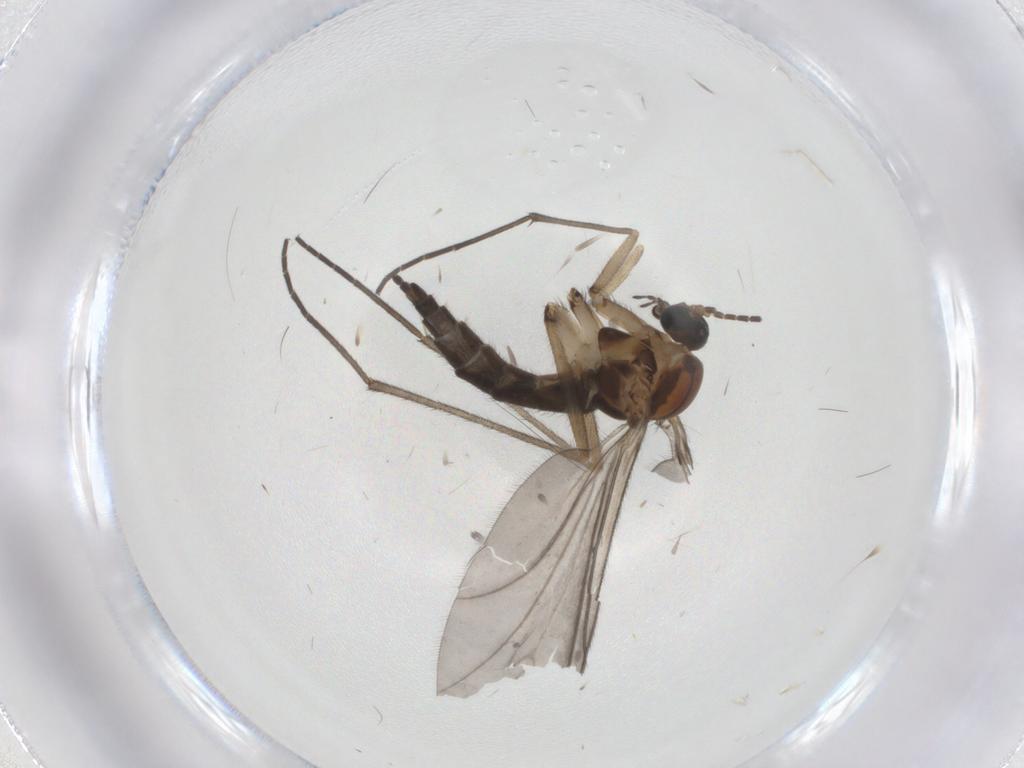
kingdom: Animalia
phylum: Arthropoda
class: Insecta
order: Diptera
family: Sciaridae
